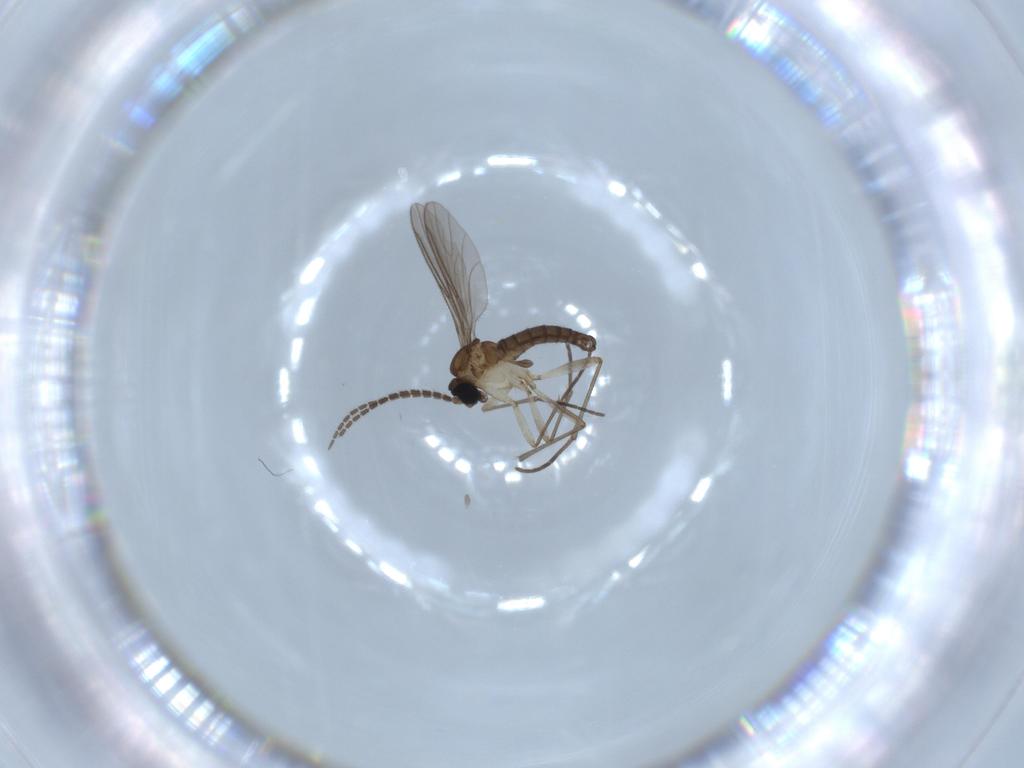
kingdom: Animalia
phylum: Arthropoda
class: Insecta
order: Diptera
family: Sciaridae
